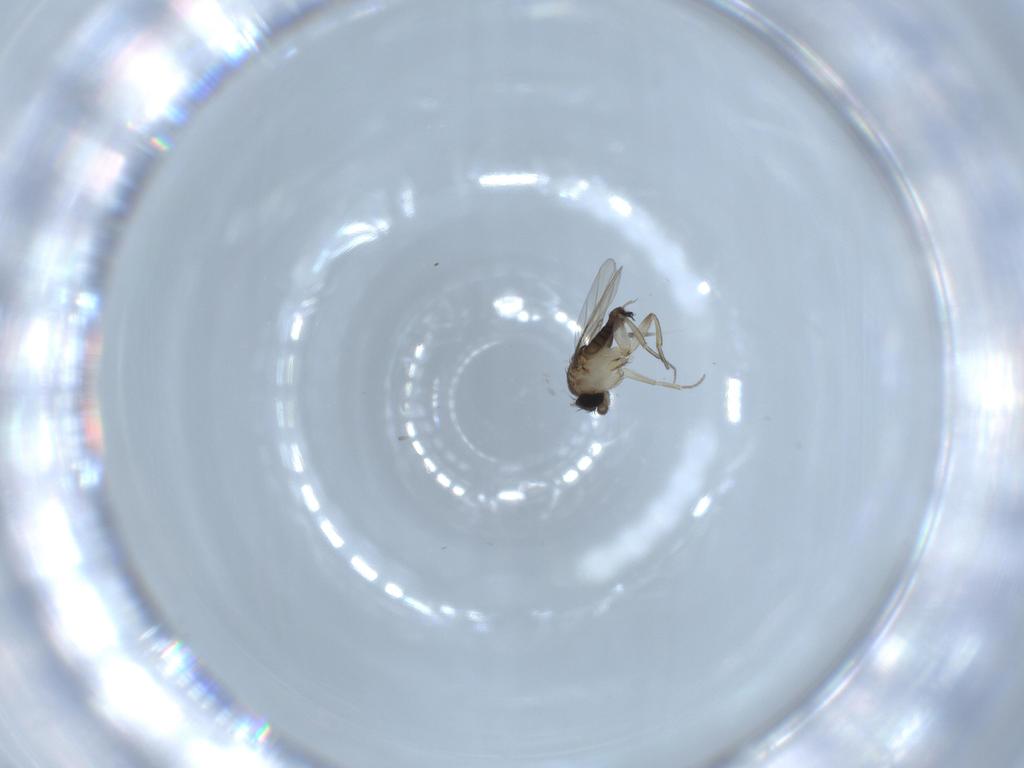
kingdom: Animalia
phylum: Arthropoda
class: Insecta
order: Diptera
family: Phoridae
